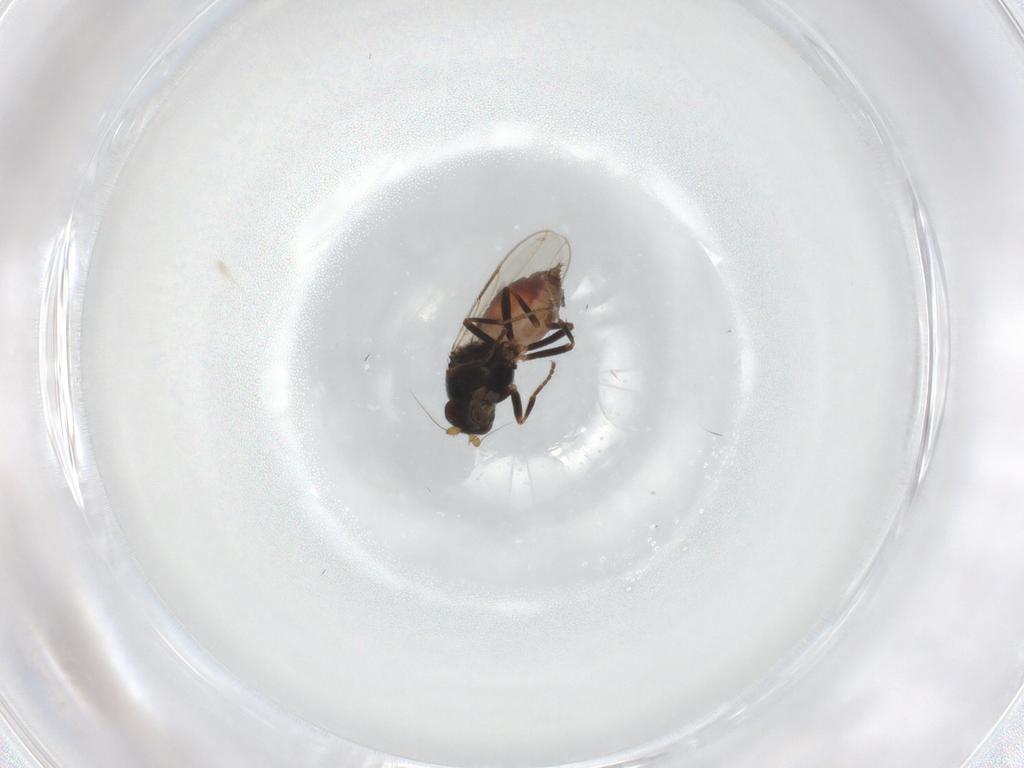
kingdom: Animalia
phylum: Arthropoda
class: Insecta
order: Diptera
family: Sphaeroceridae
